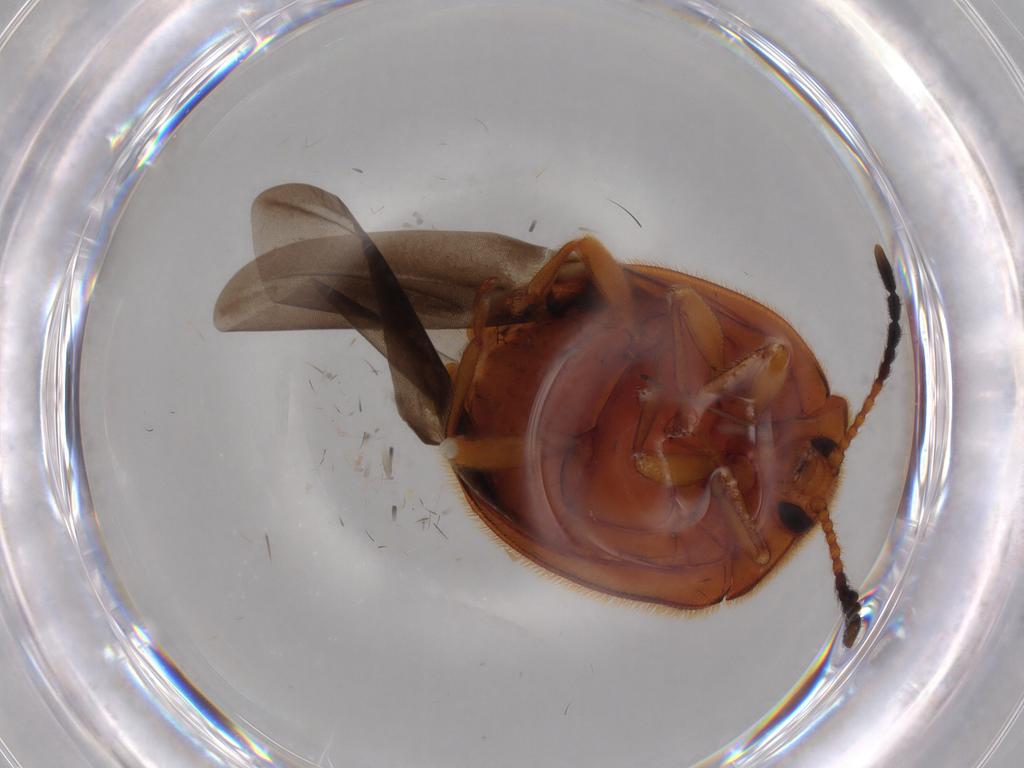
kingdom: Animalia
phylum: Arthropoda
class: Insecta
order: Coleoptera
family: Endomychidae
